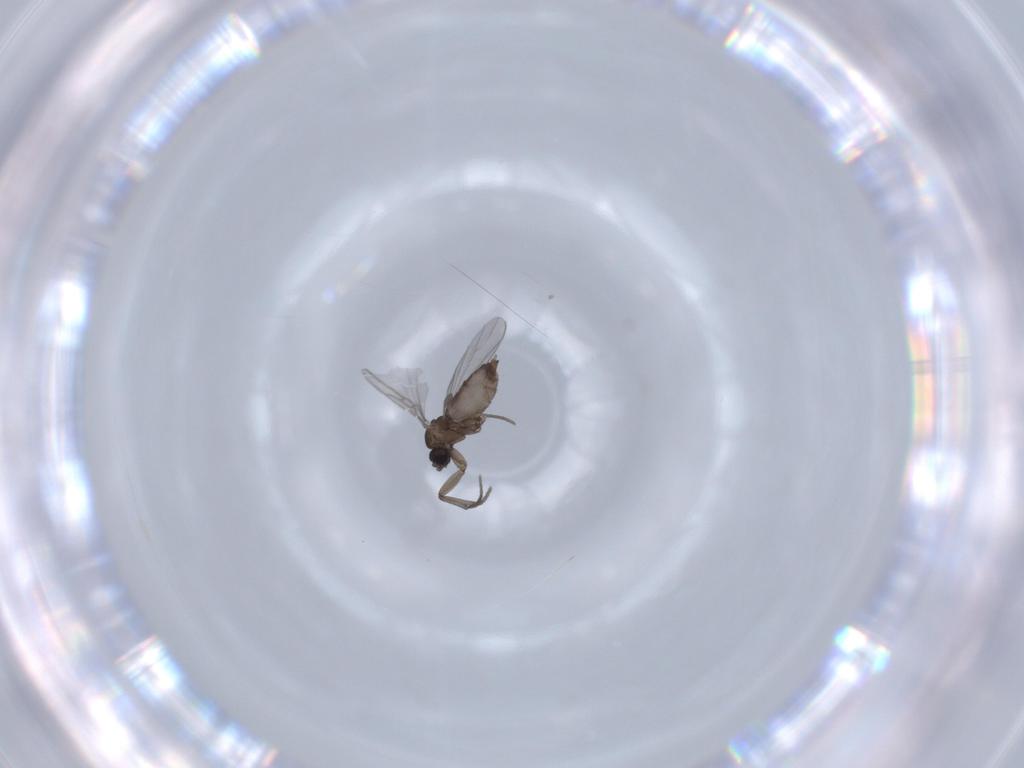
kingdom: Animalia
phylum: Arthropoda
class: Insecta
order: Diptera
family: Sciaridae
